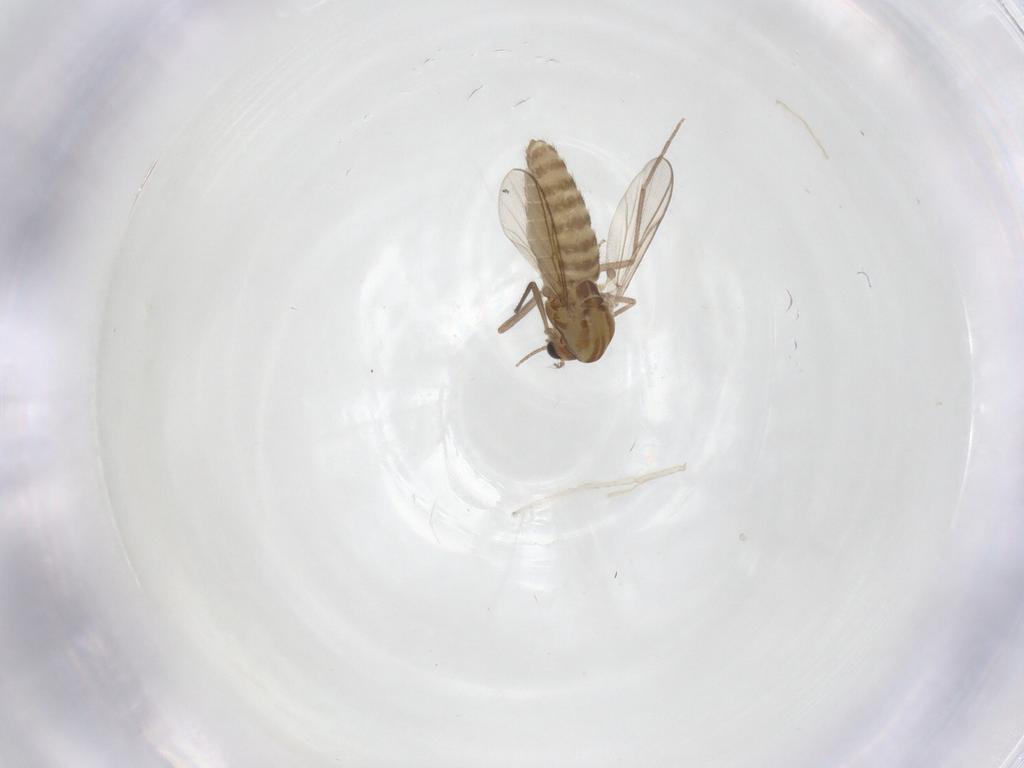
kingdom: Animalia
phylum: Arthropoda
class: Insecta
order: Diptera
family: Chironomidae
